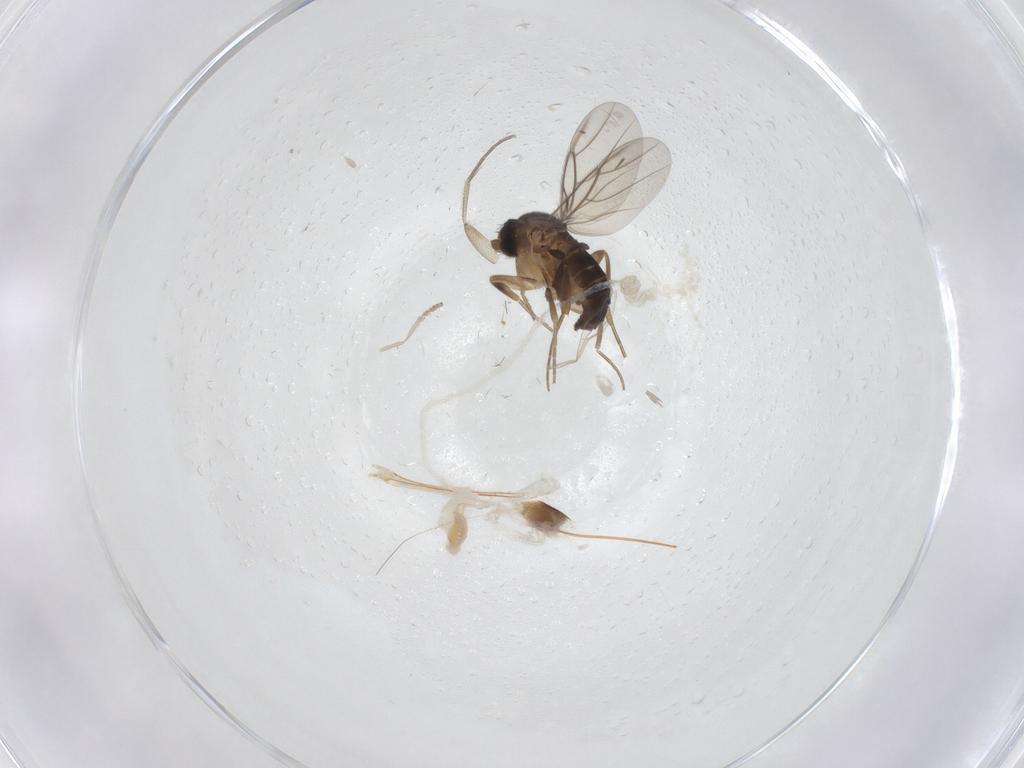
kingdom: Animalia
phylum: Arthropoda
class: Insecta
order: Diptera
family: Phoridae
